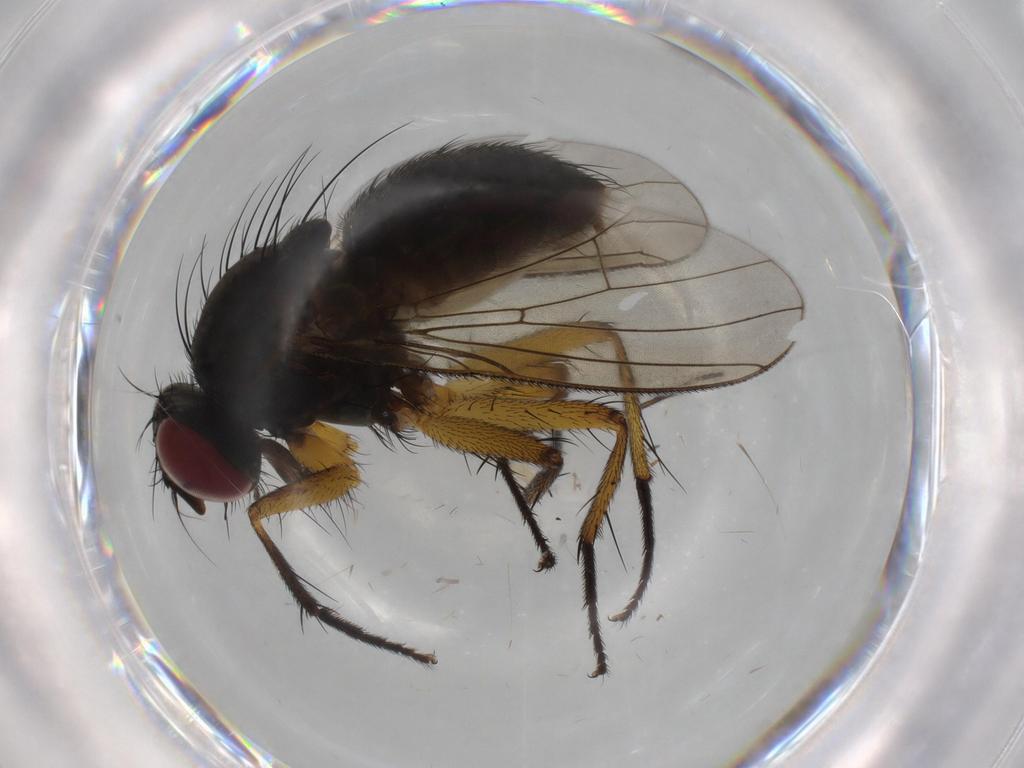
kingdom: Animalia
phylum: Arthropoda
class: Insecta
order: Diptera
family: Muscidae
